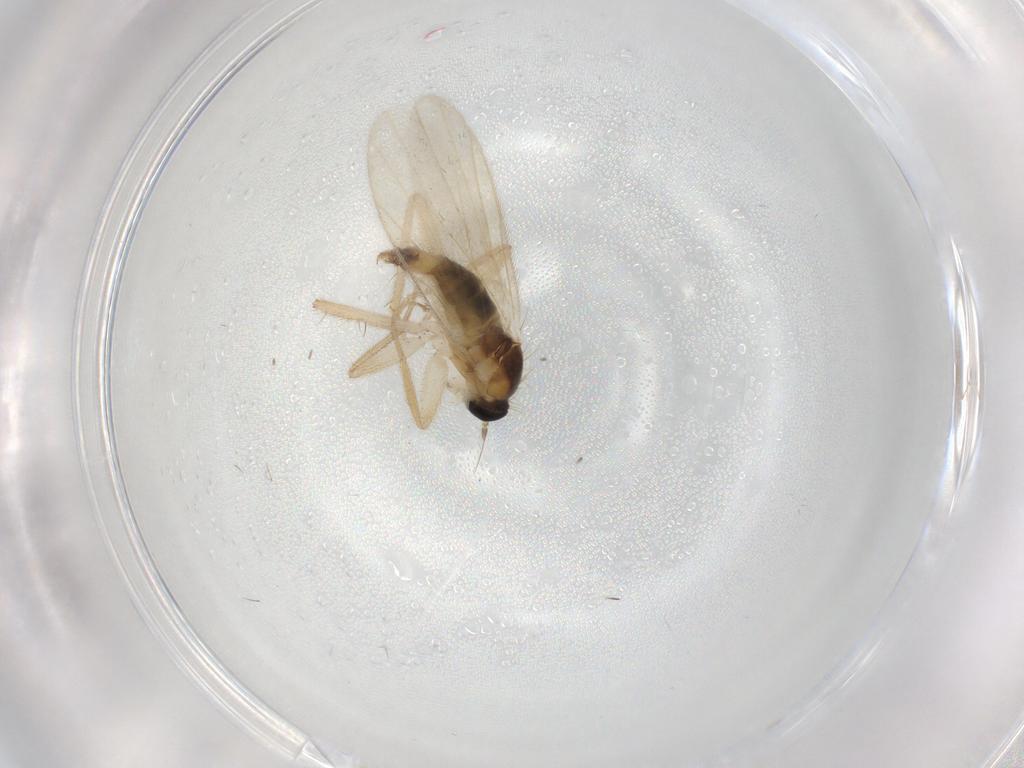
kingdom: Animalia
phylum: Arthropoda
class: Insecta
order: Diptera
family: Hybotidae
